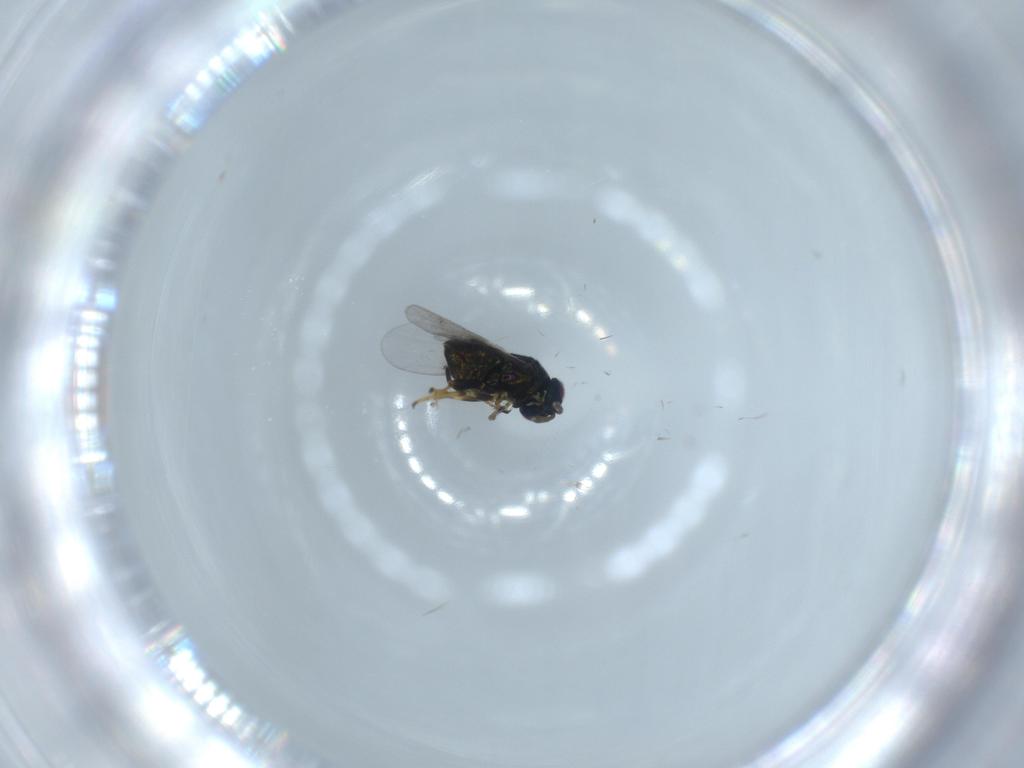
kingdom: Animalia
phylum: Arthropoda
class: Insecta
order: Hymenoptera
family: Encyrtidae
